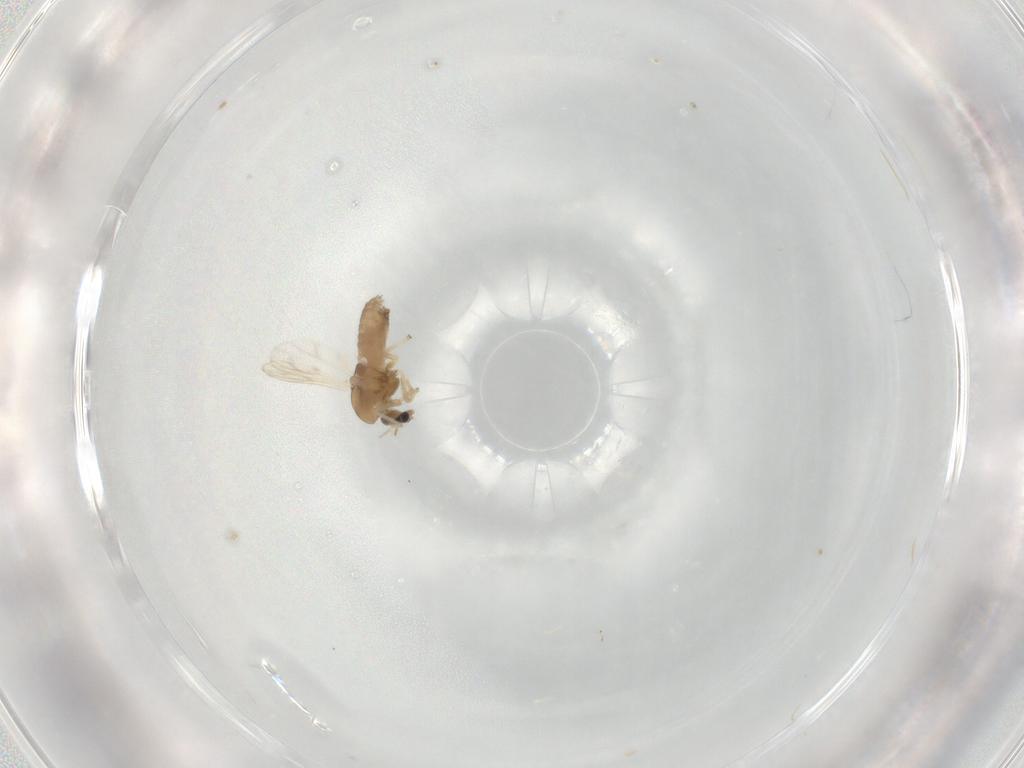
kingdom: Animalia
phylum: Arthropoda
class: Insecta
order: Diptera
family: Chironomidae
